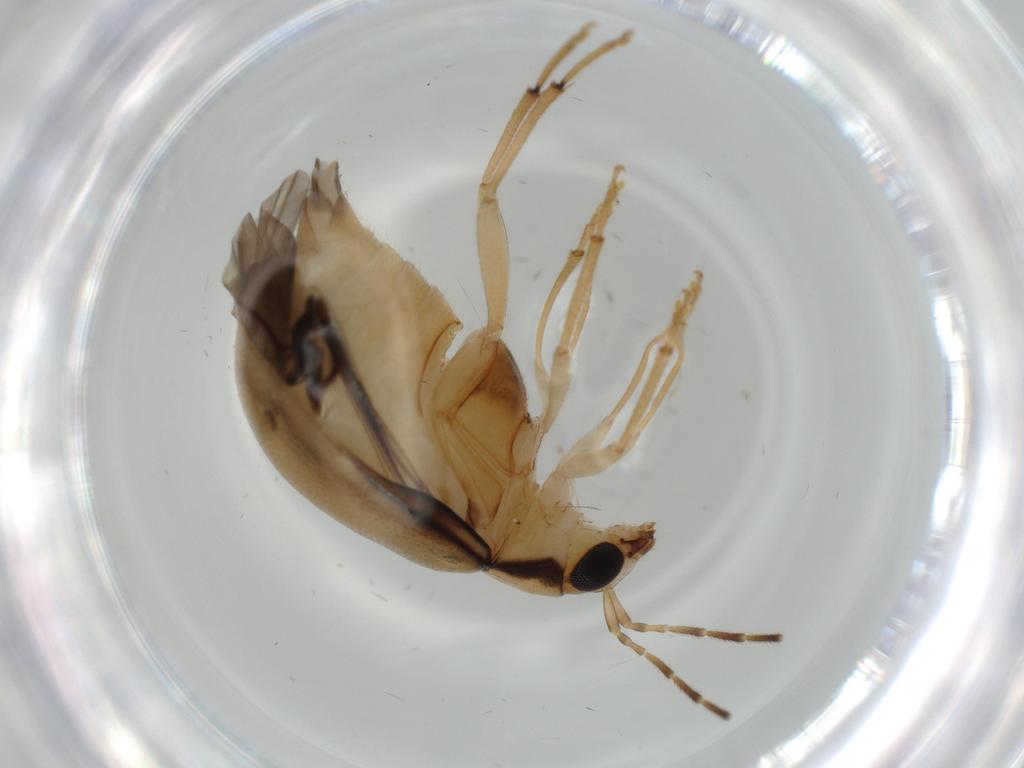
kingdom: Animalia
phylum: Arthropoda
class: Insecta
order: Coleoptera
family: Chrysomelidae
